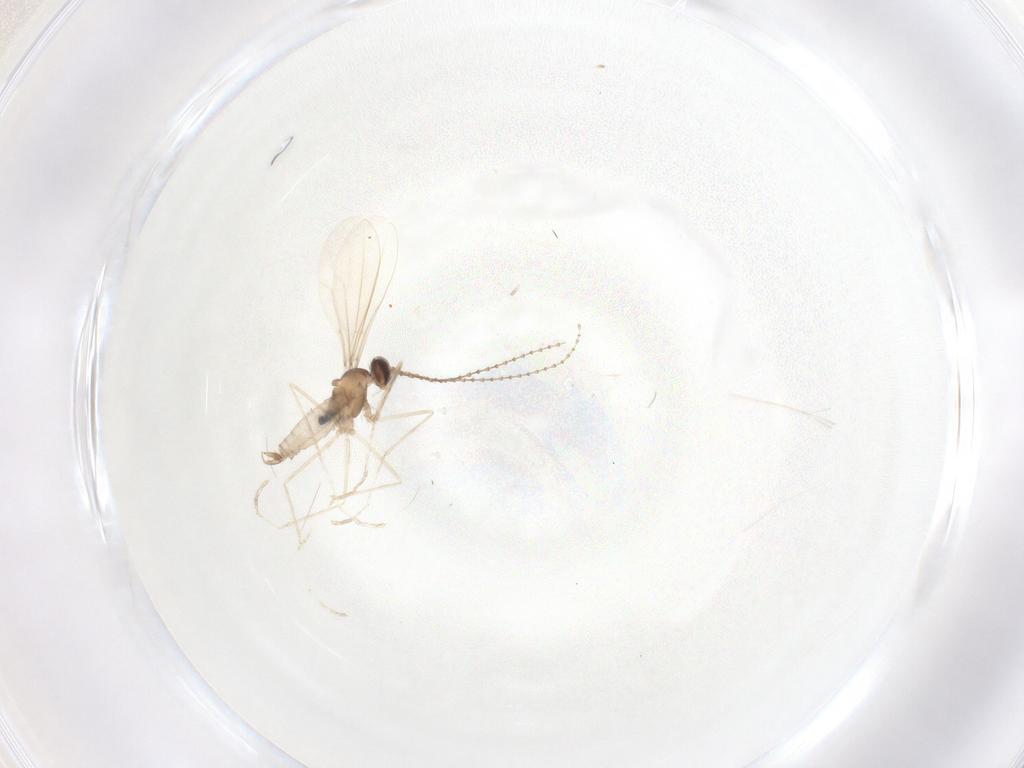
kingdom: Animalia
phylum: Arthropoda
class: Insecta
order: Diptera
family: Cecidomyiidae
